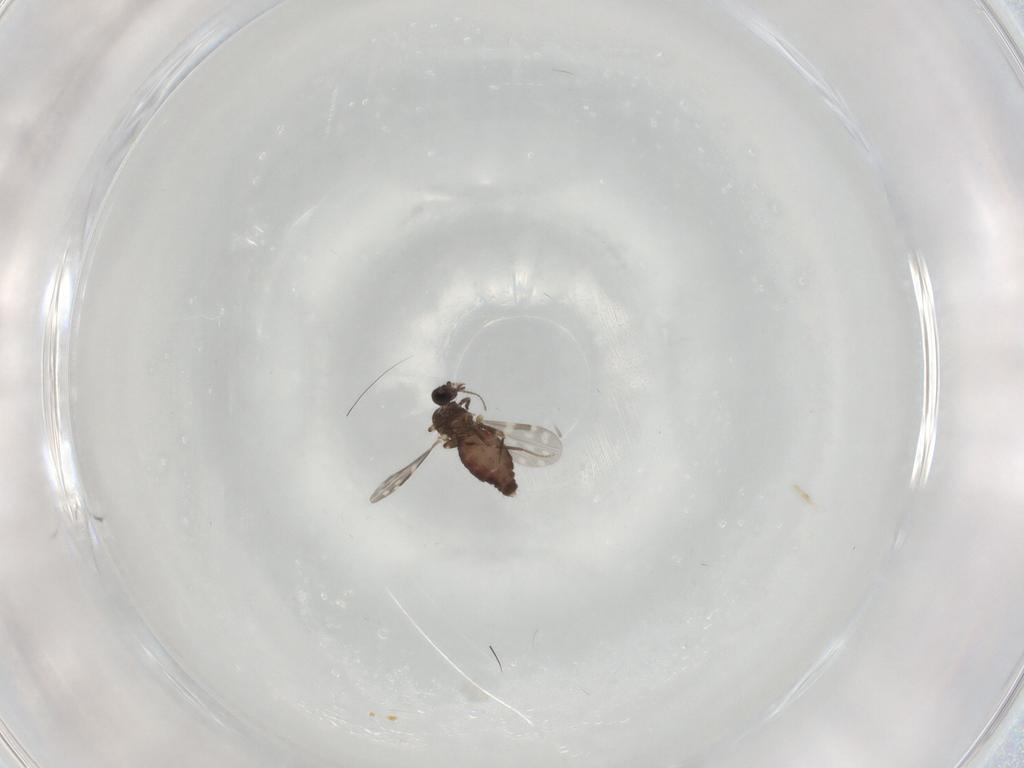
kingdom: Animalia
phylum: Arthropoda
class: Insecta
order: Diptera
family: Ceratopogonidae
